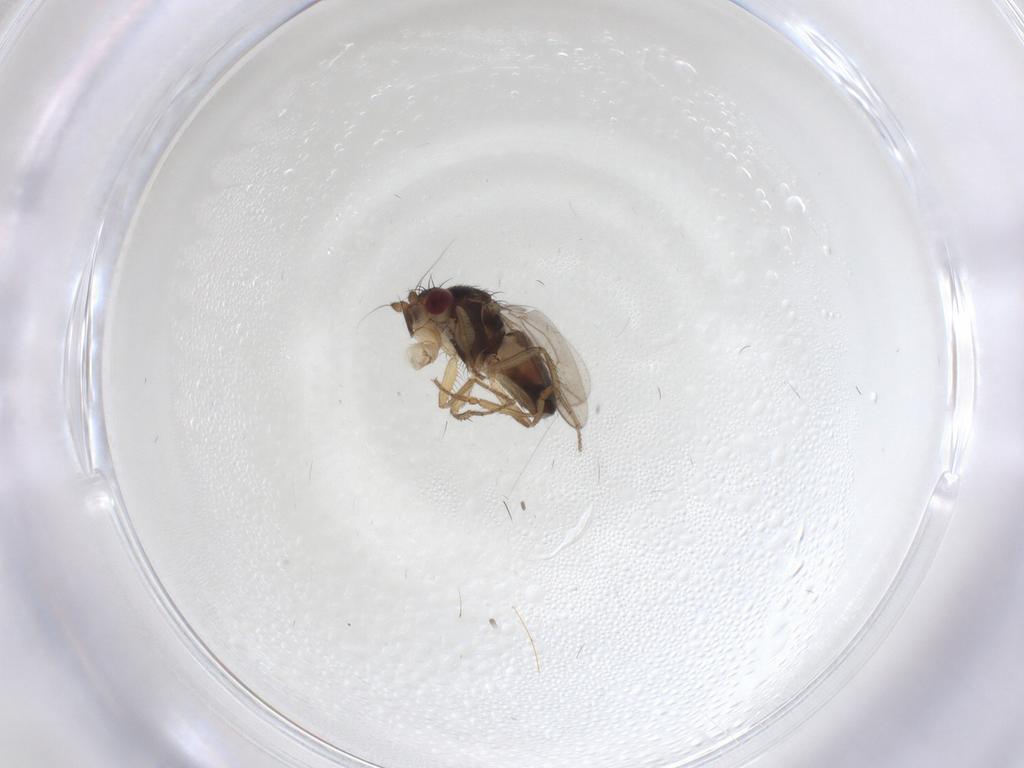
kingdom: Animalia
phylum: Arthropoda
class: Insecta
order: Diptera
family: Sphaeroceridae
